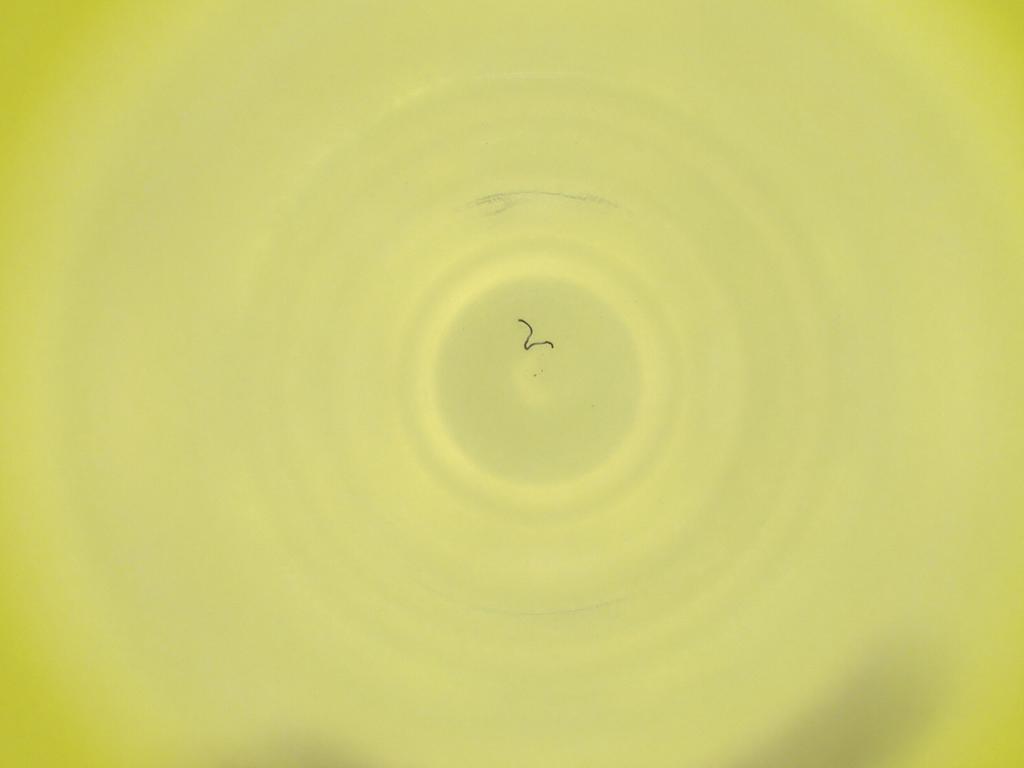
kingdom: Animalia
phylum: Arthropoda
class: Insecta
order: Diptera
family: Cecidomyiidae
